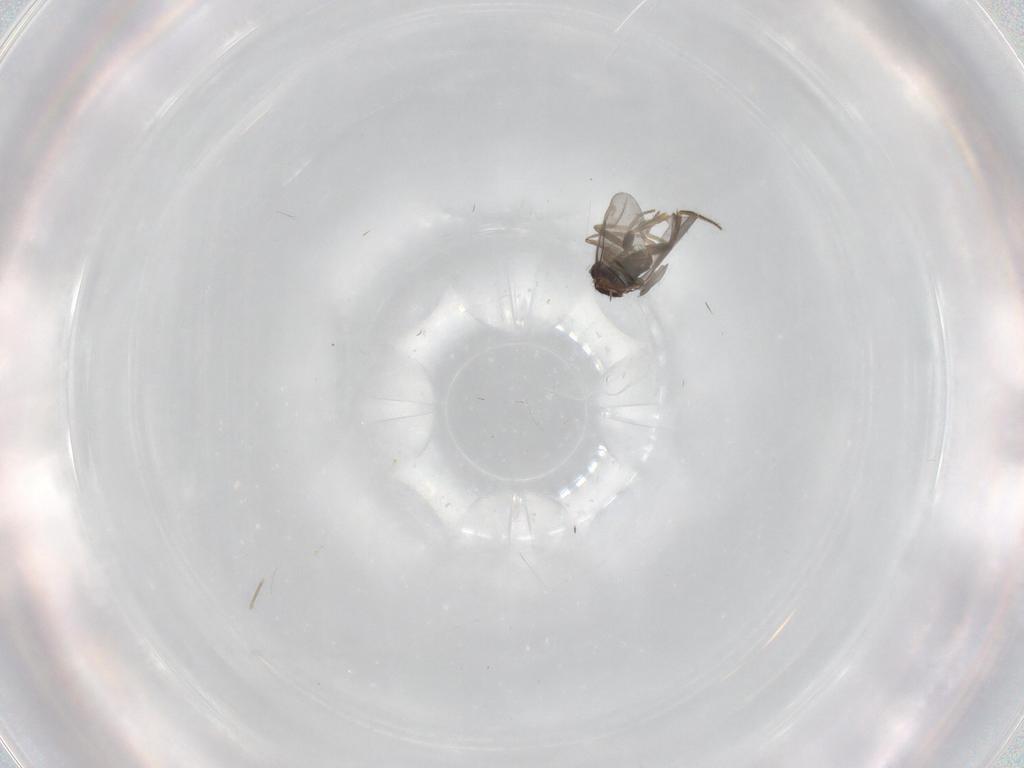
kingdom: Animalia
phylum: Arthropoda
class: Insecta
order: Diptera
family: Cecidomyiidae
